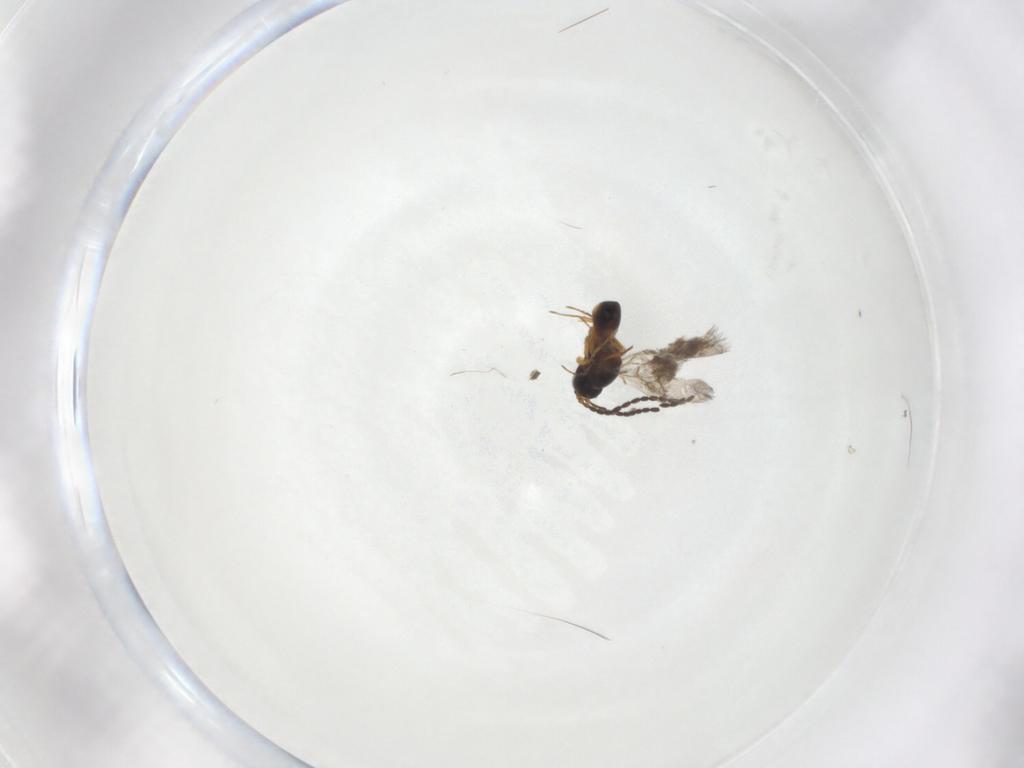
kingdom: Animalia
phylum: Arthropoda
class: Insecta
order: Hymenoptera
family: Figitidae
